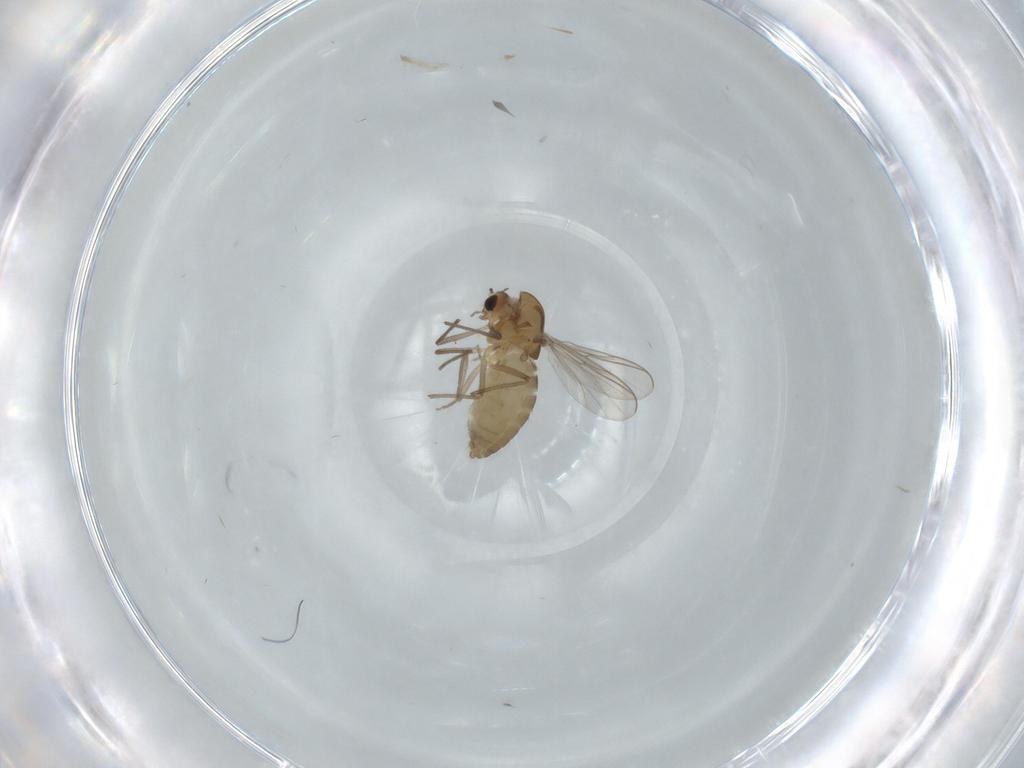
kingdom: Animalia
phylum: Arthropoda
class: Insecta
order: Diptera
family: Chironomidae
